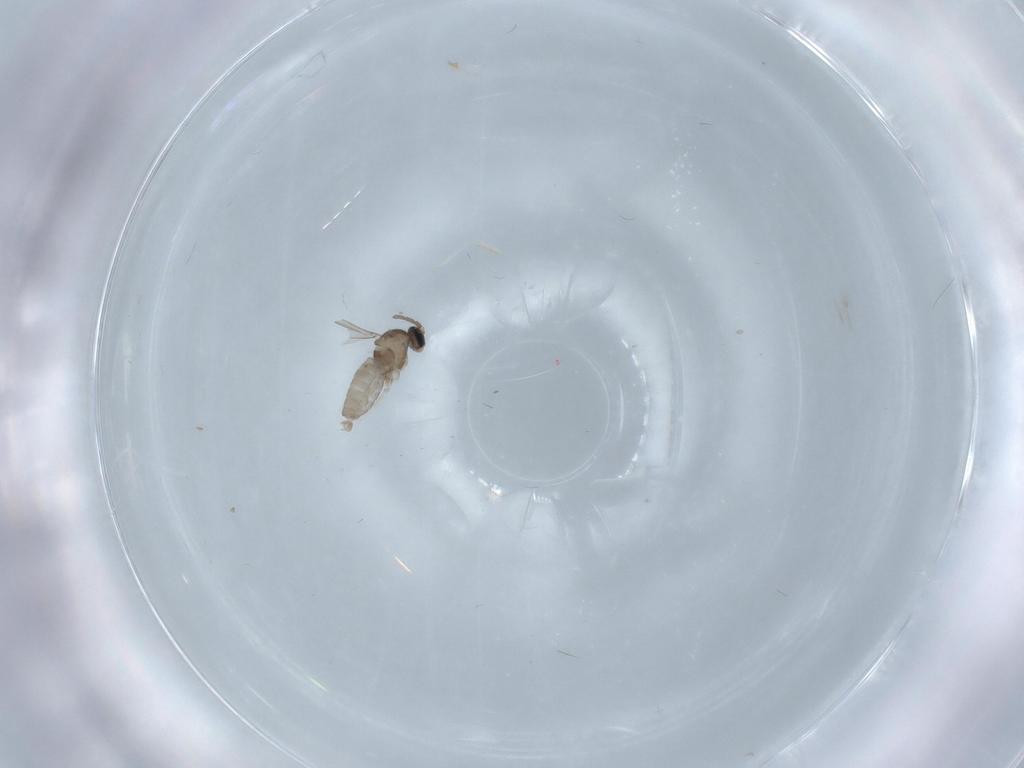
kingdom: Animalia
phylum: Arthropoda
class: Insecta
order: Diptera
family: Cecidomyiidae
